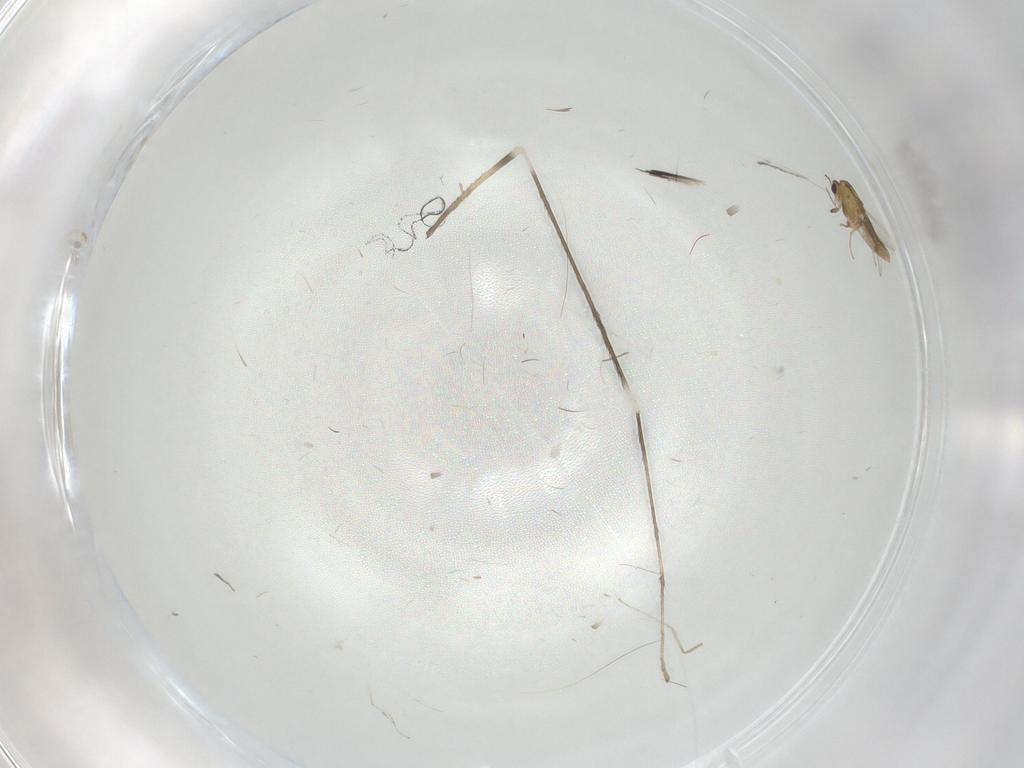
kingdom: Animalia
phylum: Arthropoda
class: Insecta
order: Diptera
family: Chironomidae
